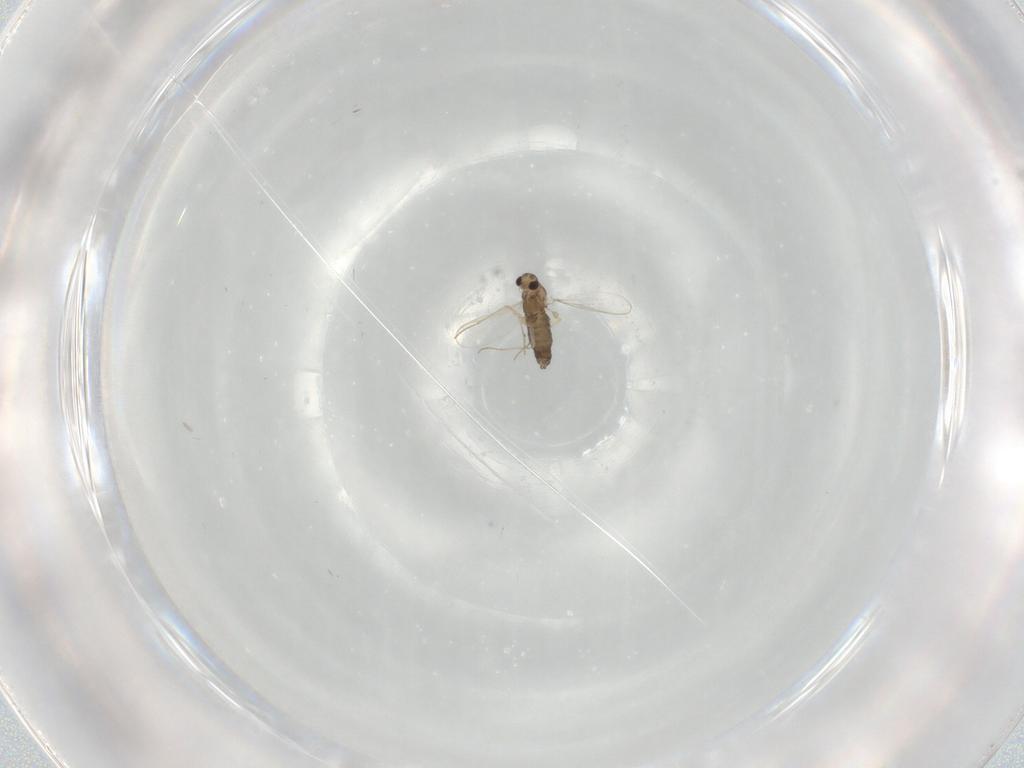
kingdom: Animalia
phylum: Arthropoda
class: Insecta
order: Diptera
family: Chironomidae
